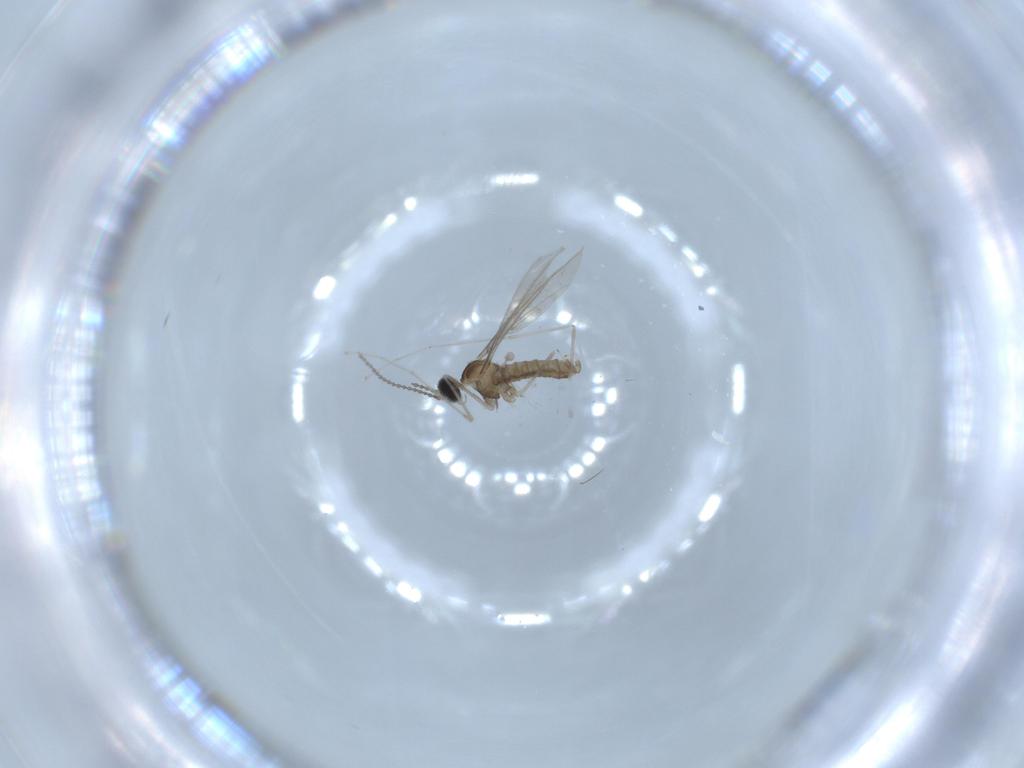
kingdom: Animalia
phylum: Arthropoda
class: Insecta
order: Diptera
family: Cecidomyiidae
